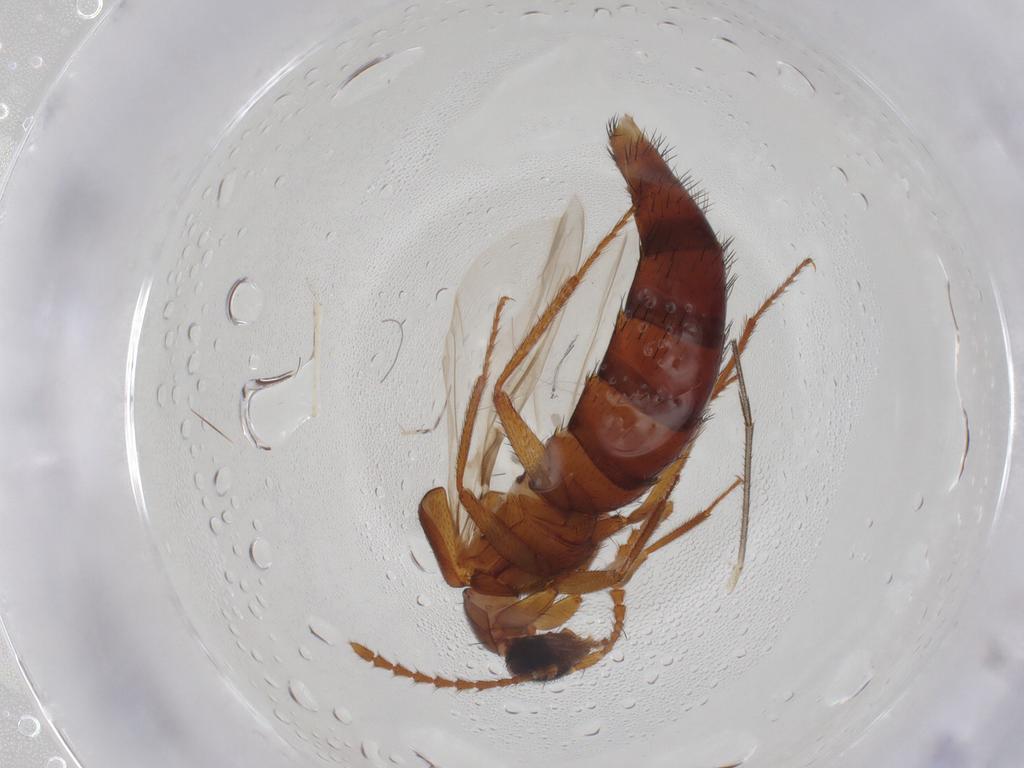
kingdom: Animalia
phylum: Arthropoda
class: Insecta
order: Coleoptera
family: Staphylinidae
